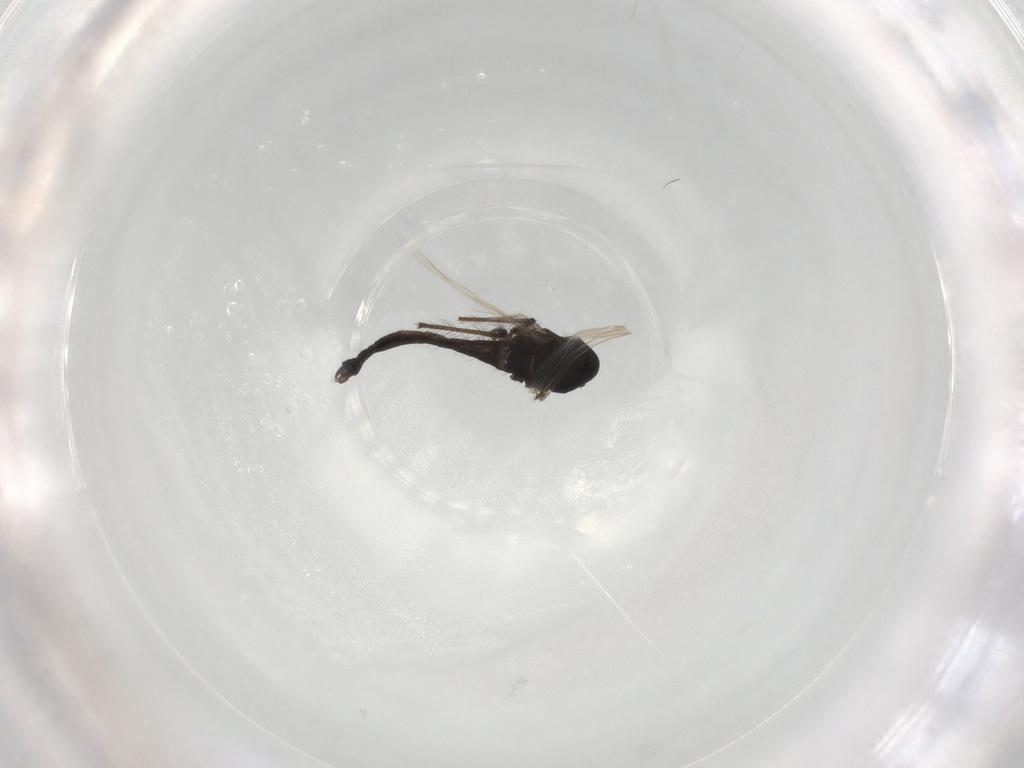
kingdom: Animalia
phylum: Arthropoda
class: Insecta
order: Diptera
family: Chironomidae
